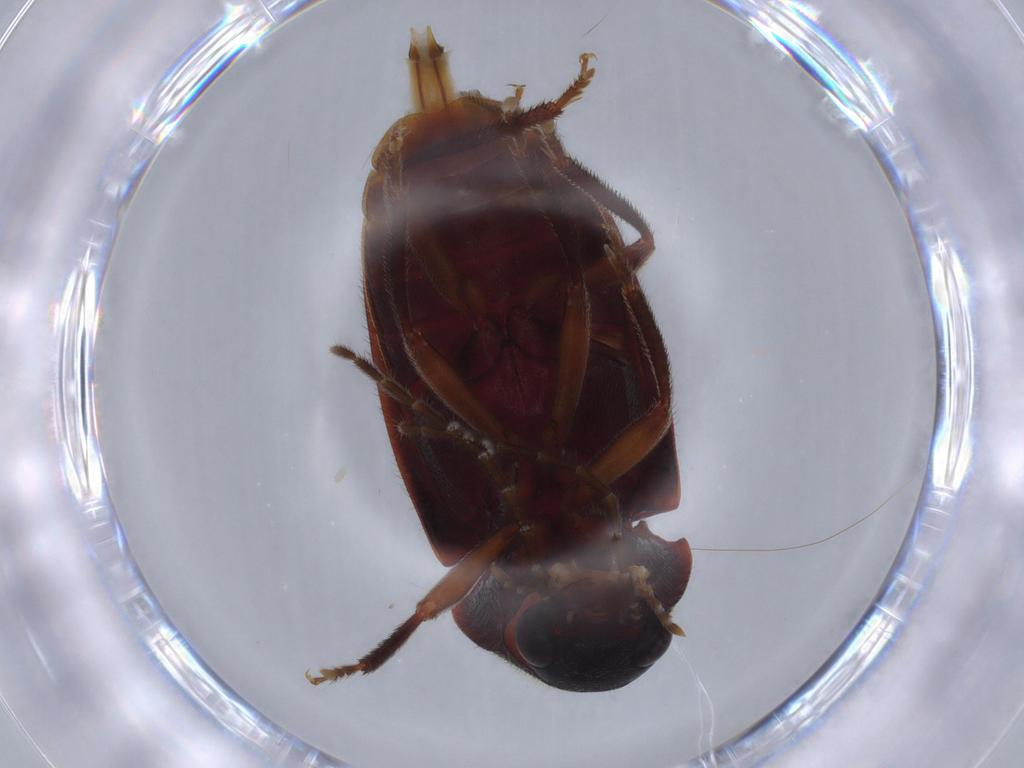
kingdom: Animalia
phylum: Arthropoda
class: Insecta
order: Coleoptera
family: Ptilodactylidae
